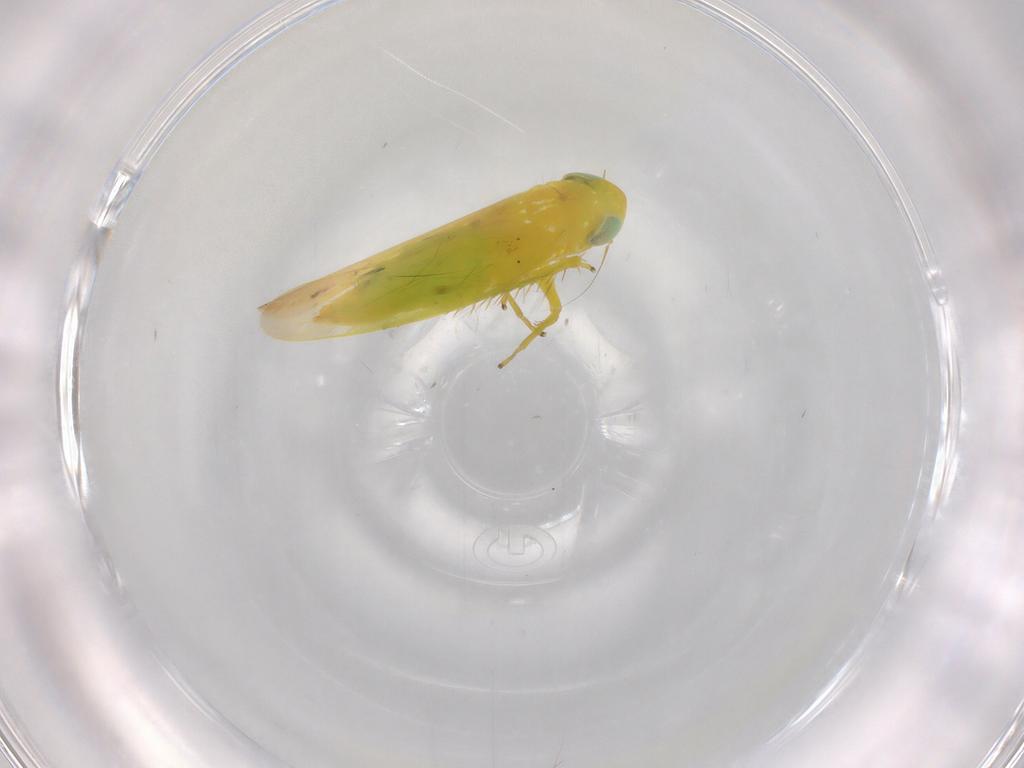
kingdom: Animalia
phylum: Arthropoda
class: Insecta
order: Hemiptera
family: Cicadellidae
